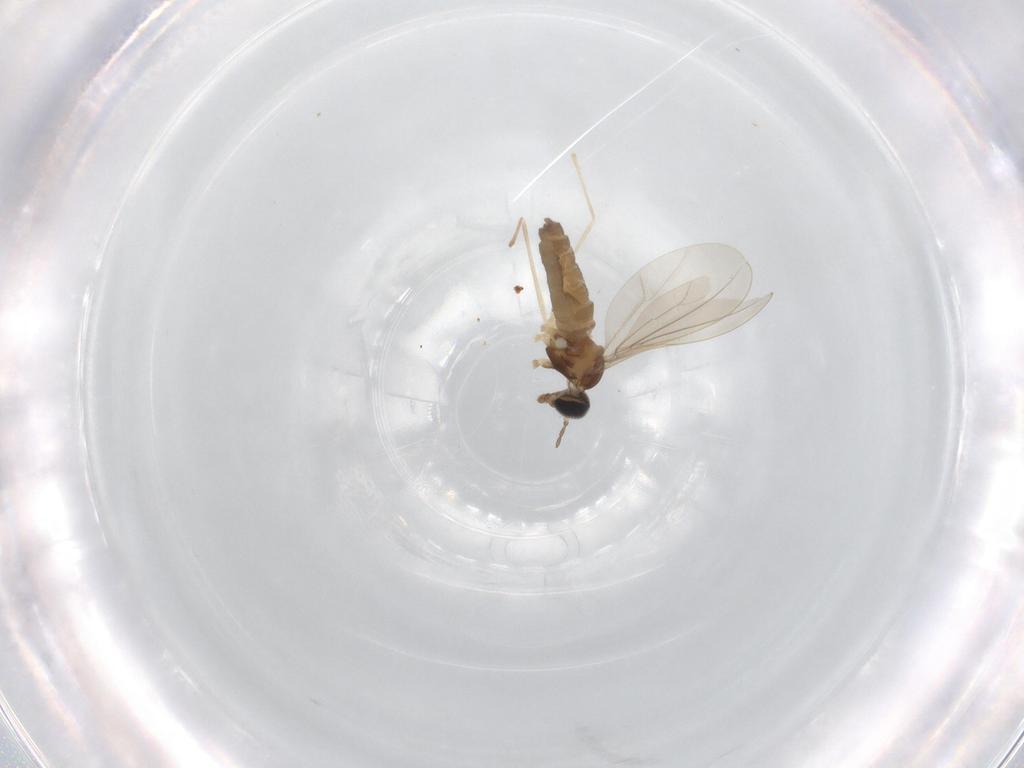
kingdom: Animalia
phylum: Arthropoda
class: Insecta
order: Diptera
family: Cecidomyiidae
